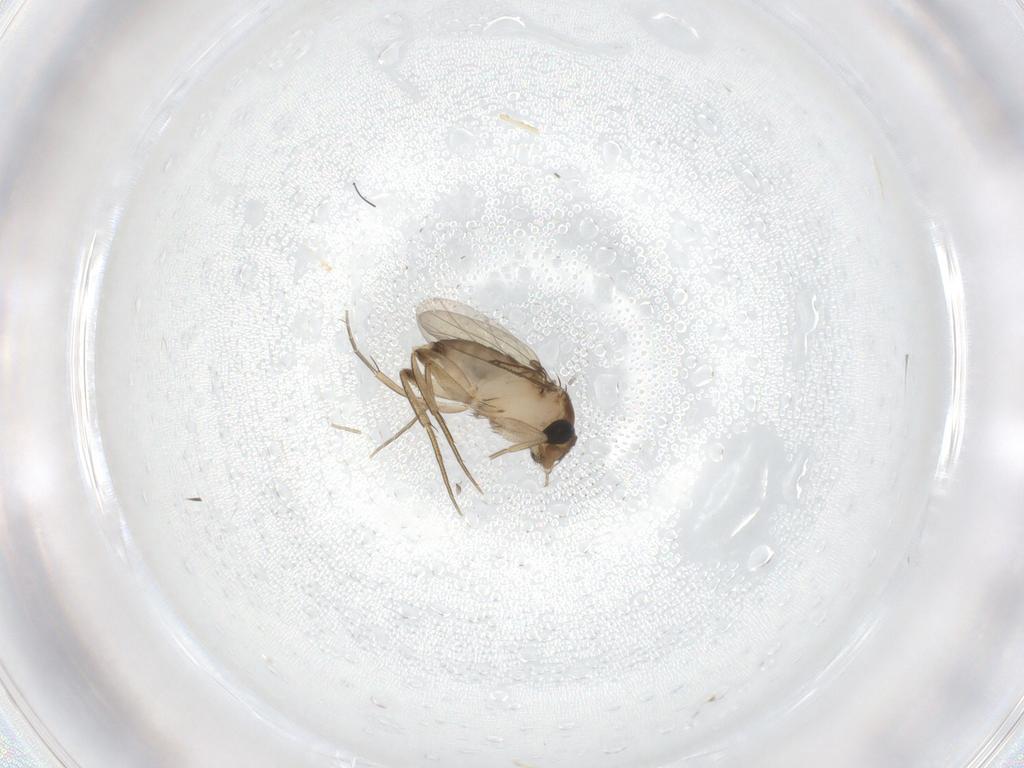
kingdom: Animalia
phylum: Arthropoda
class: Insecta
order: Diptera
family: Phoridae
